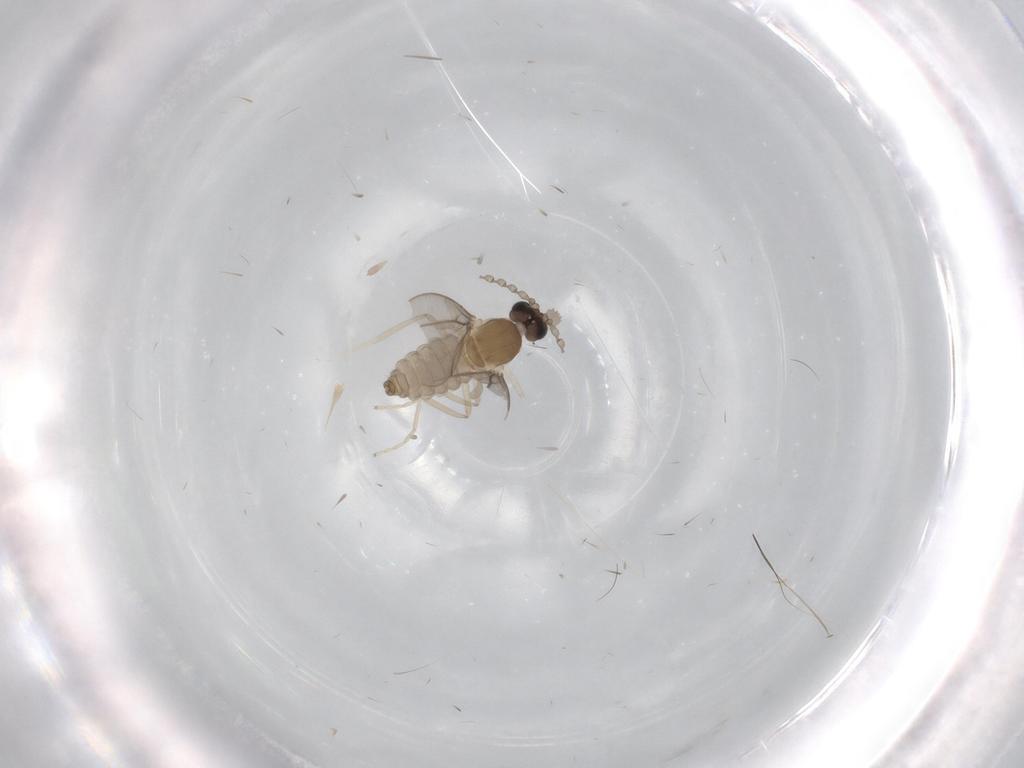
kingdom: Animalia
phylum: Arthropoda
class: Insecta
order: Diptera
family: Cecidomyiidae
